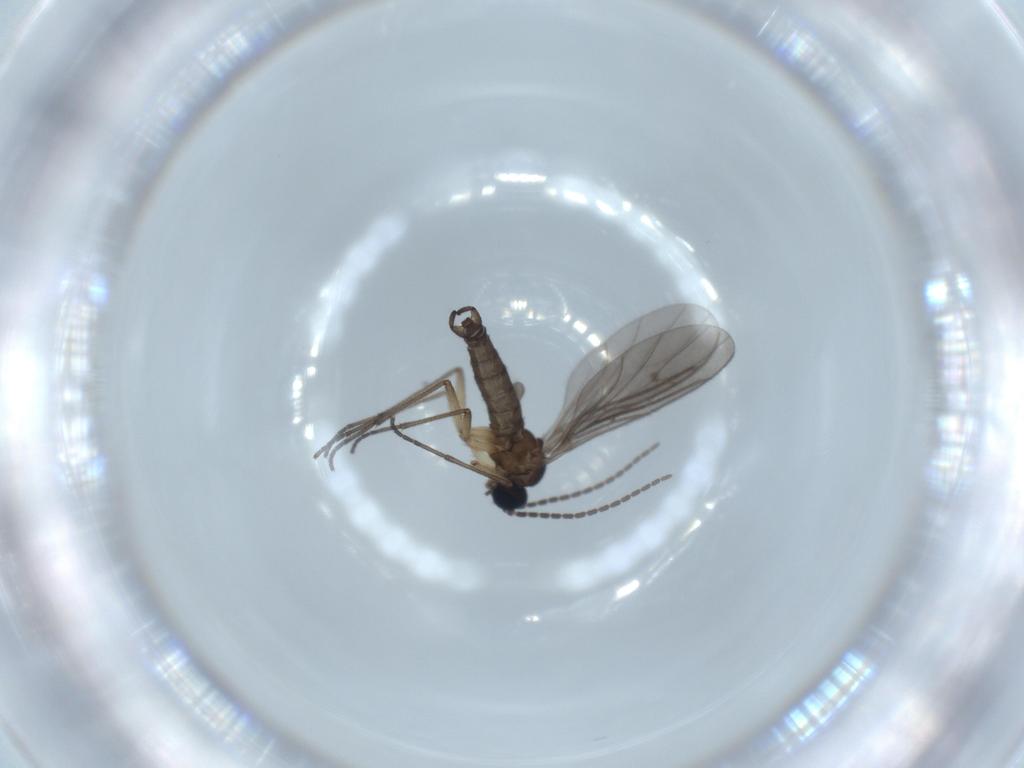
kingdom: Animalia
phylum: Arthropoda
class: Insecta
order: Diptera
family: Sciaridae
